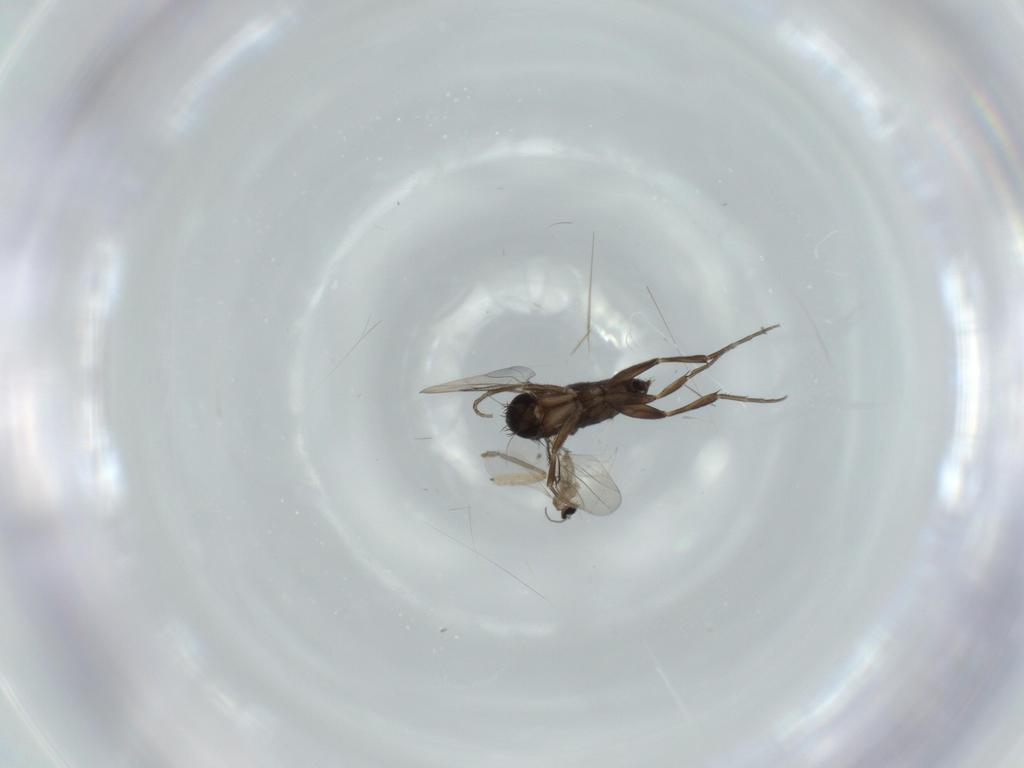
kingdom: Animalia
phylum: Arthropoda
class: Insecta
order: Diptera
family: Cecidomyiidae
